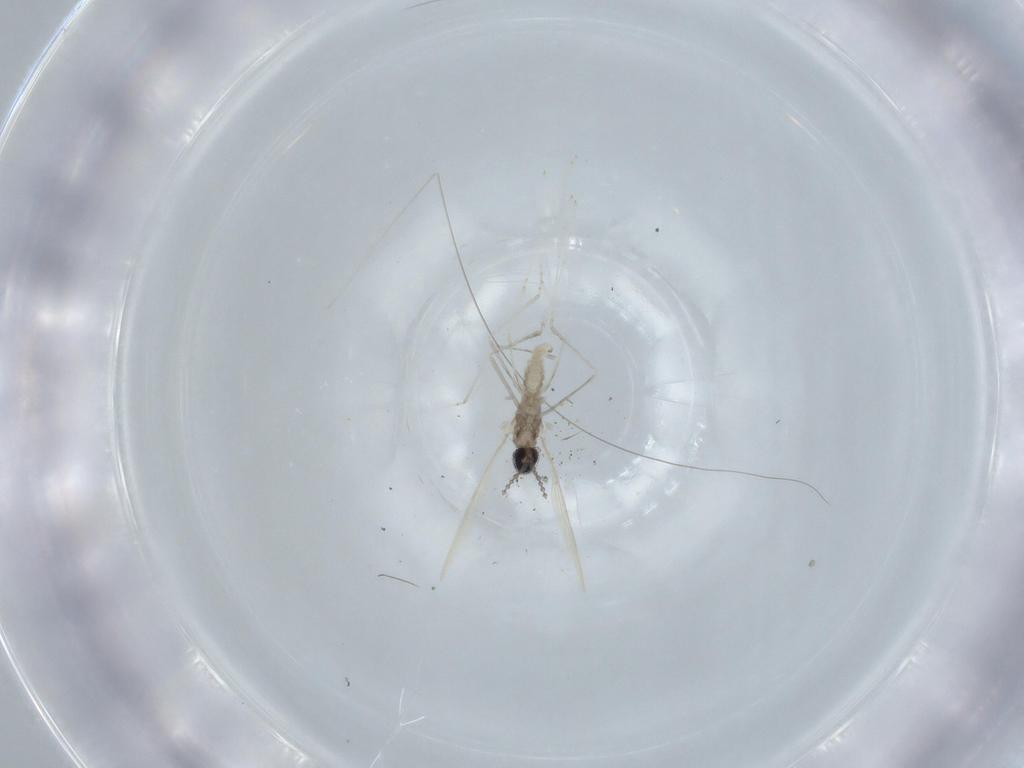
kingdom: Animalia
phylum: Arthropoda
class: Insecta
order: Diptera
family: Cecidomyiidae
